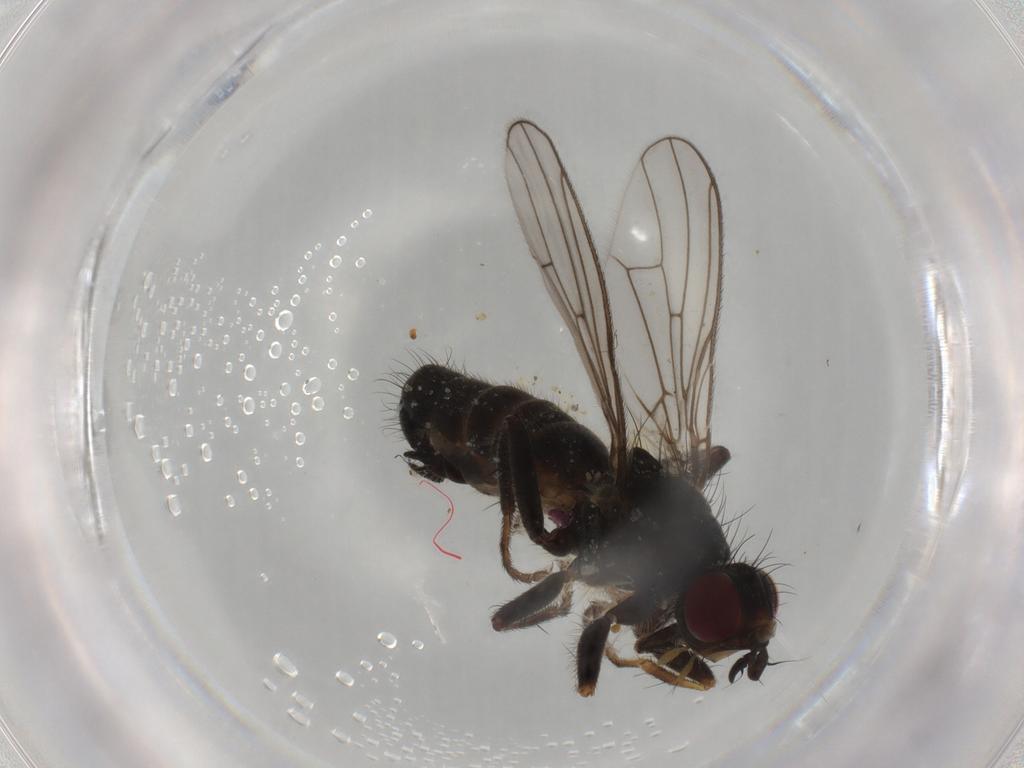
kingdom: Animalia
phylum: Arthropoda
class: Insecta
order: Diptera
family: Scathophagidae
